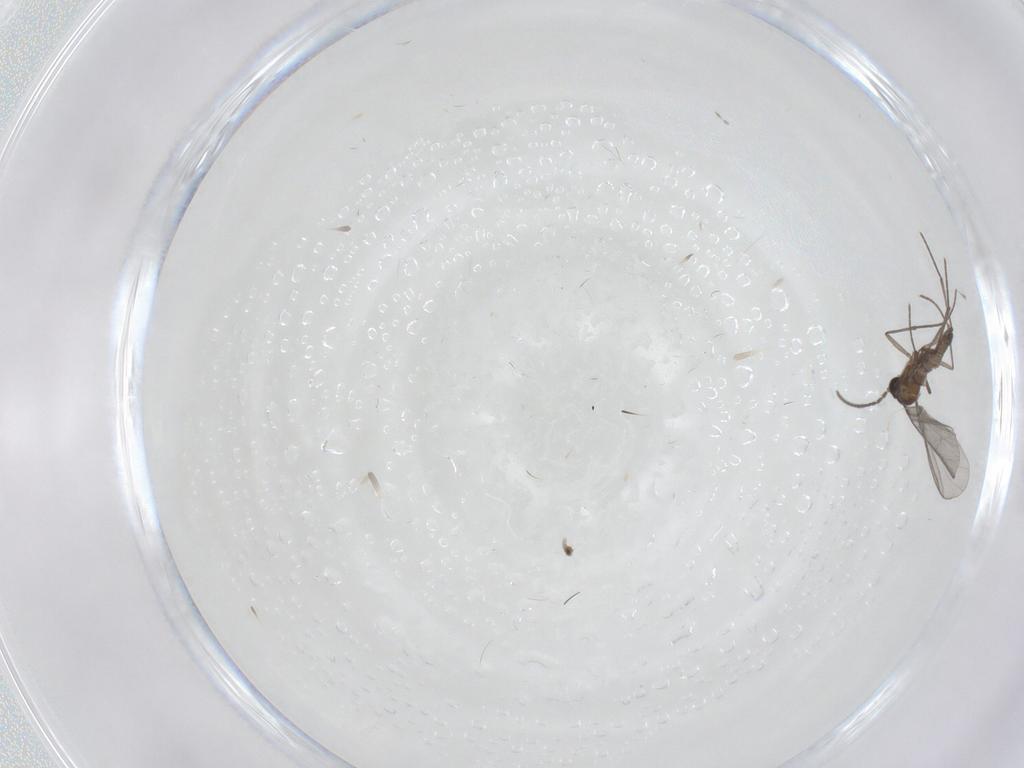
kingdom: Animalia
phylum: Arthropoda
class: Insecta
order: Diptera
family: Sciaridae
